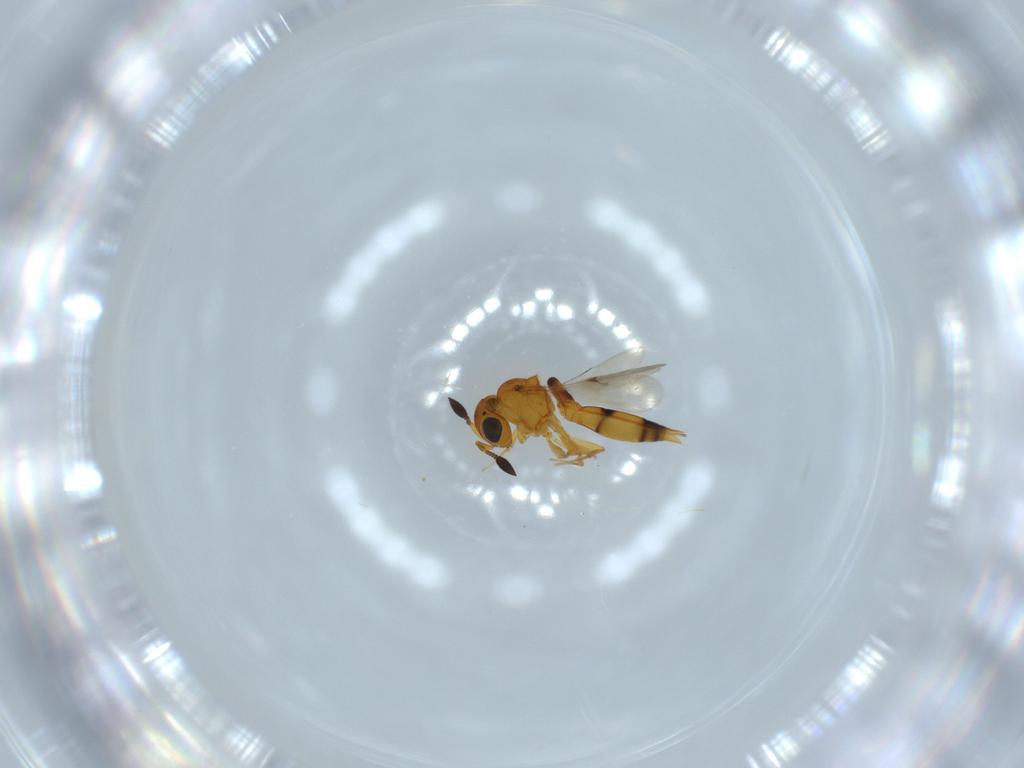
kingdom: Animalia
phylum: Arthropoda
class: Insecta
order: Hymenoptera
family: Scelionidae
